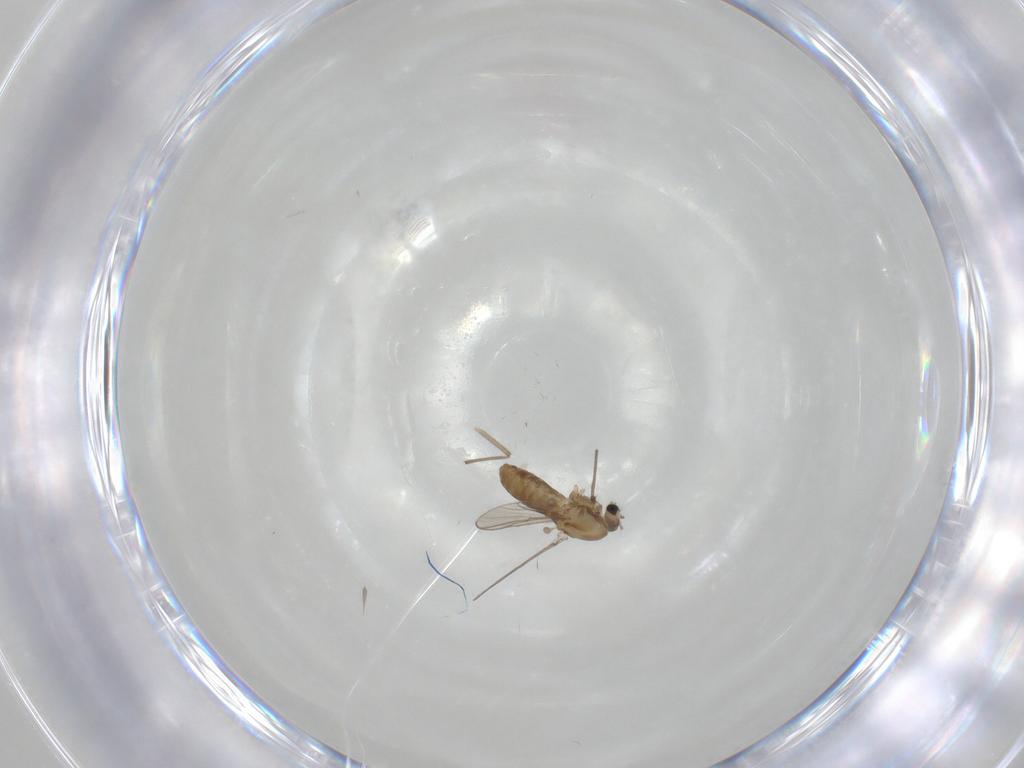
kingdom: Animalia
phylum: Arthropoda
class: Insecta
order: Diptera
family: Chironomidae
